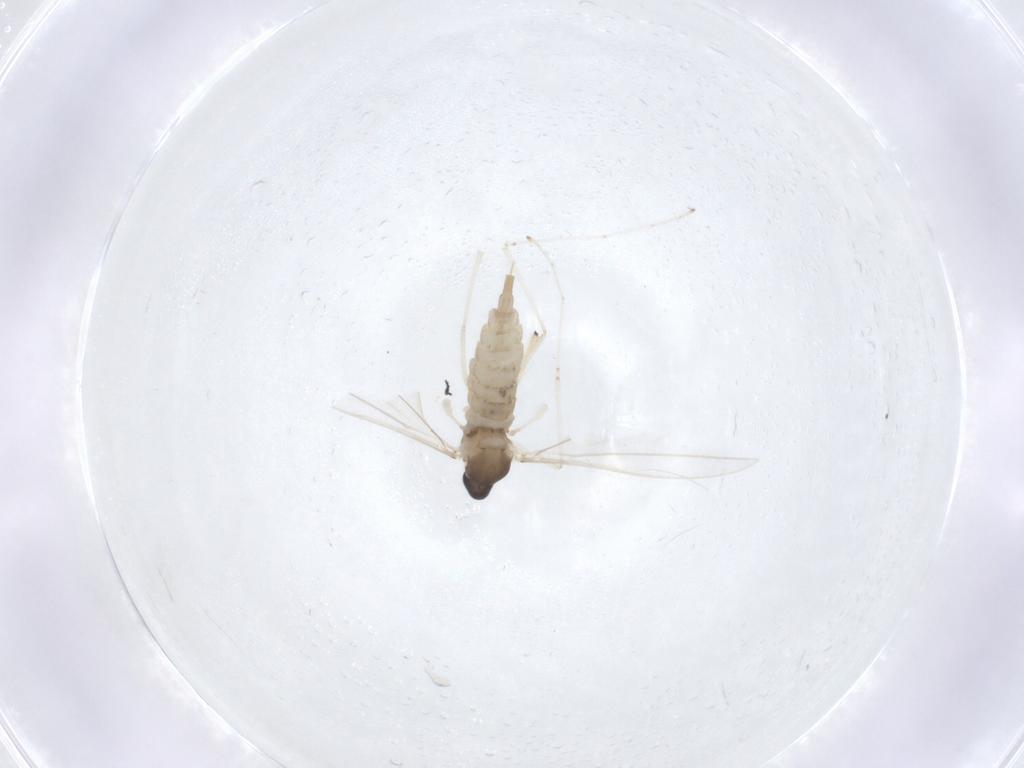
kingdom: Animalia
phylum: Arthropoda
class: Insecta
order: Diptera
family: Cecidomyiidae
